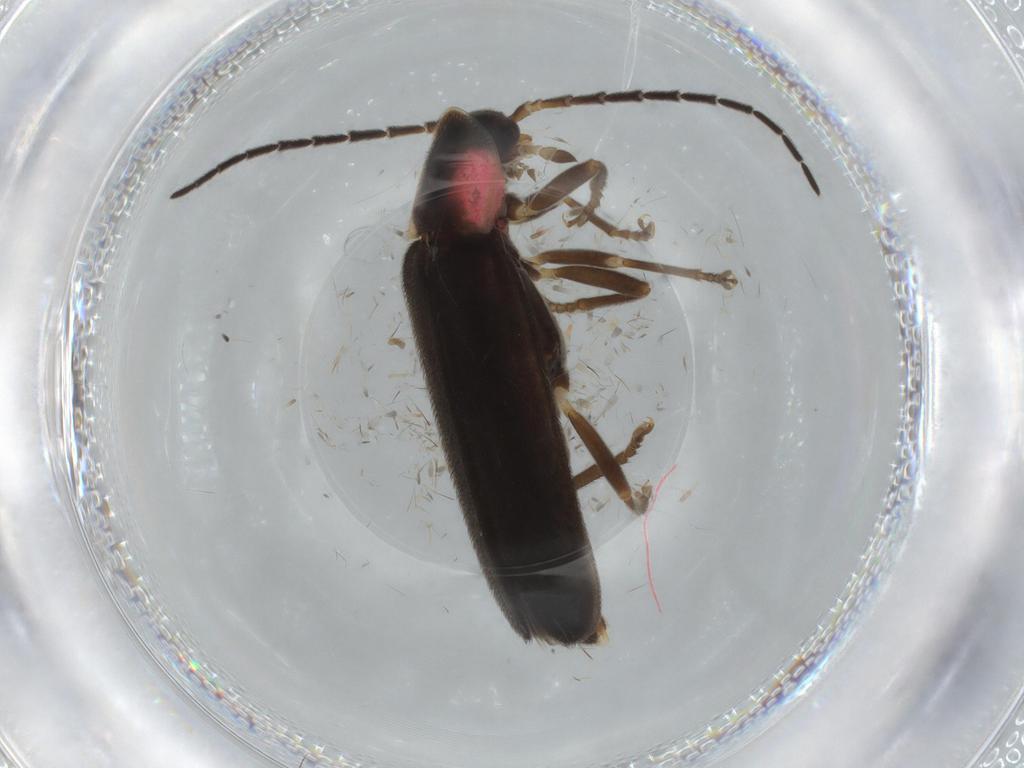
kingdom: Animalia
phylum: Arthropoda
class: Insecta
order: Coleoptera
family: Lampyridae
